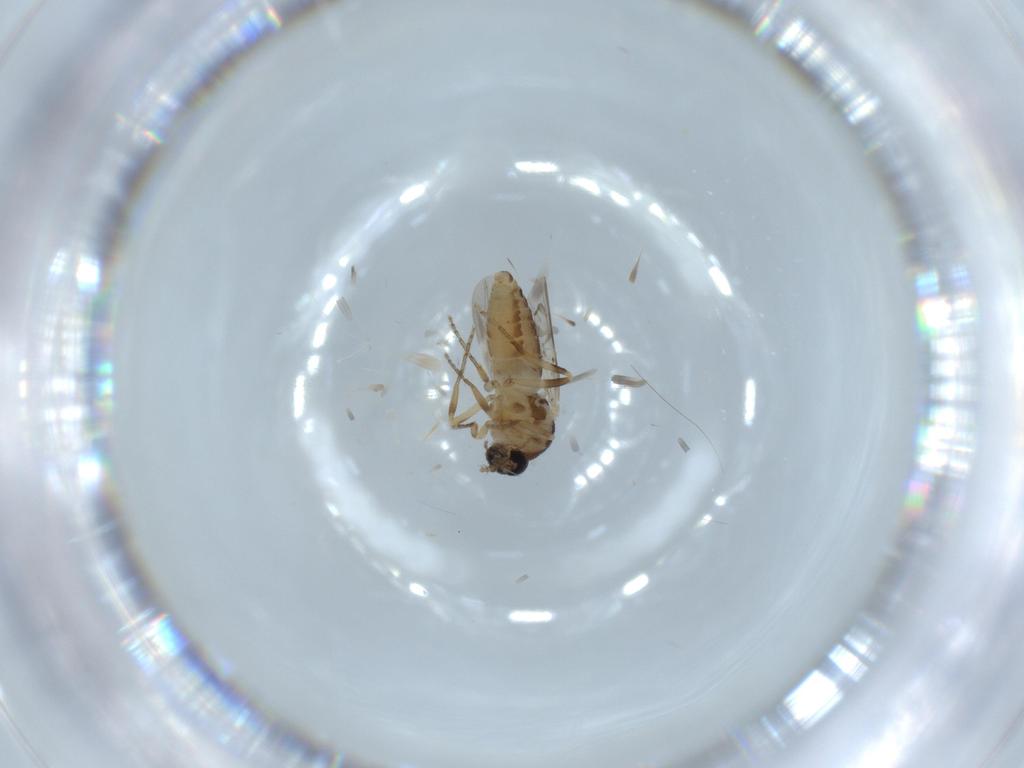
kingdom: Animalia
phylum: Arthropoda
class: Insecta
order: Diptera
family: Ceratopogonidae
